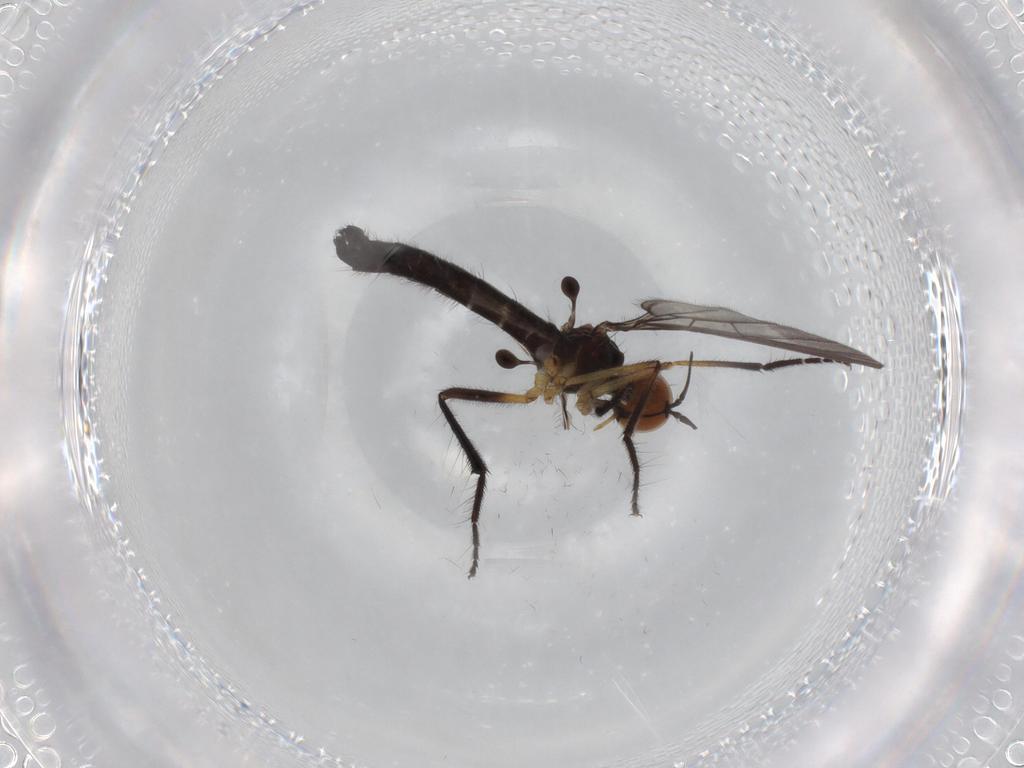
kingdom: Animalia
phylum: Arthropoda
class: Insecta
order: Diptera
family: Empididae
